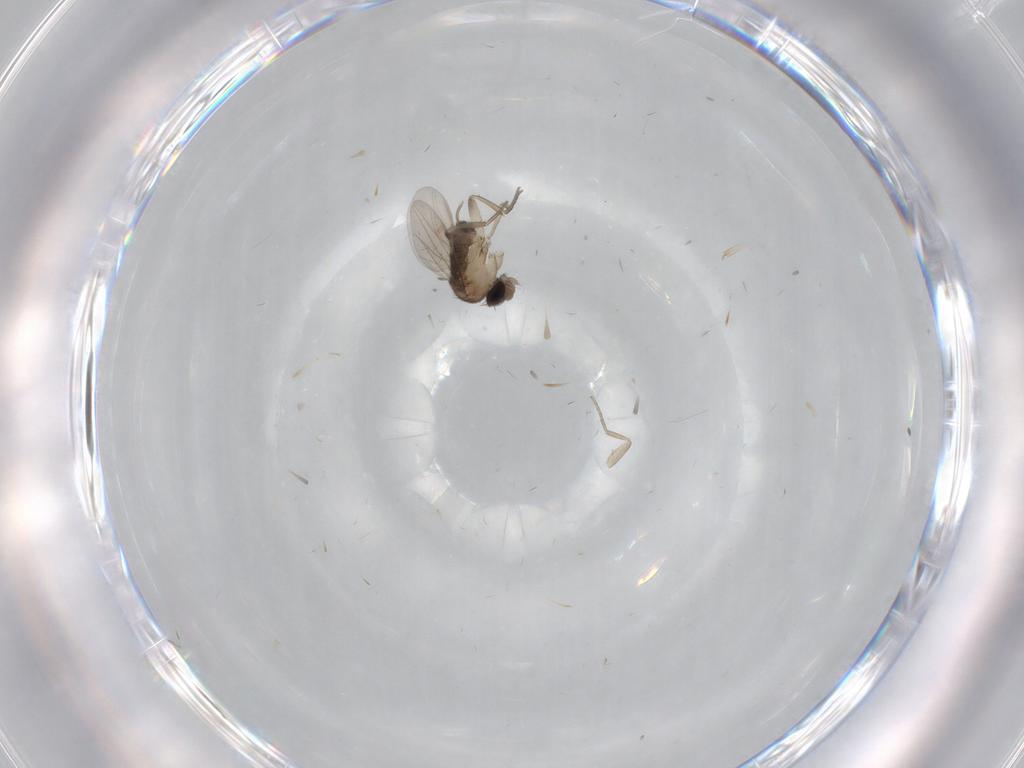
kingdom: Animalia
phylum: Arthropoda
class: Insecta
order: Diptera
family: Phoridae
